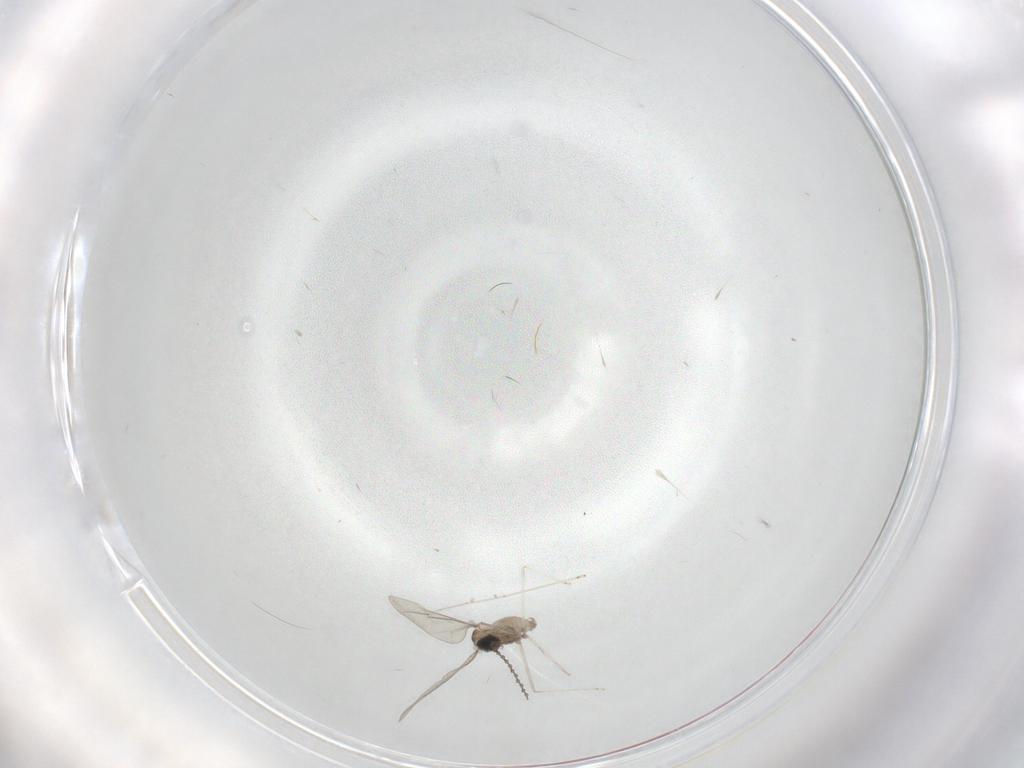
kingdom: Animalia
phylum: Arthropoda
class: Insecta
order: Diptera
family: Cecidomyiidae
